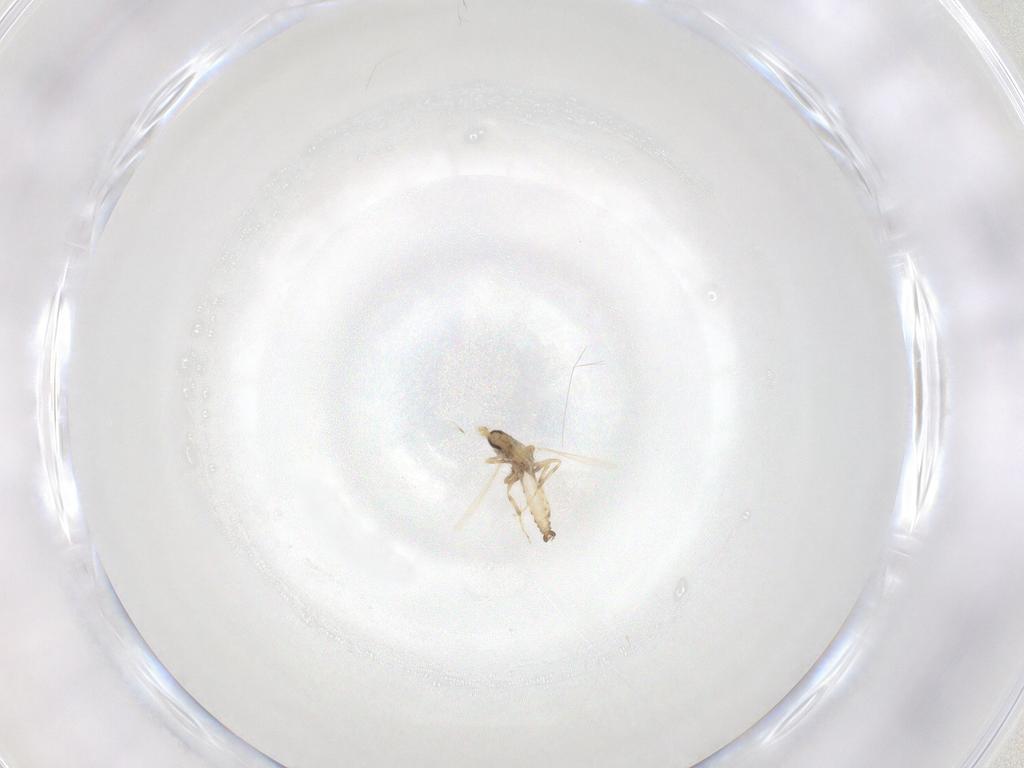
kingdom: Animalia
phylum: Arthropoda
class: Insecta
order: Diptera
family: Ceratopogonidae
